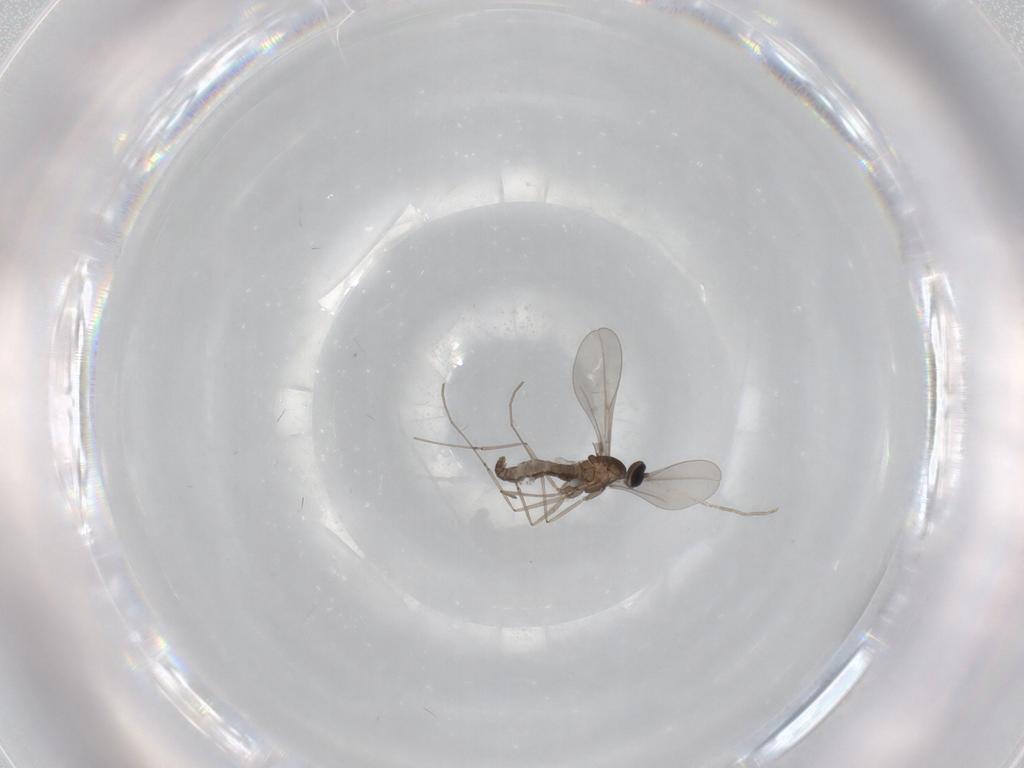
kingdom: Animalia
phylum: Arthropoda
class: Insecta
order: Diptera
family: Cecidomyiidae
